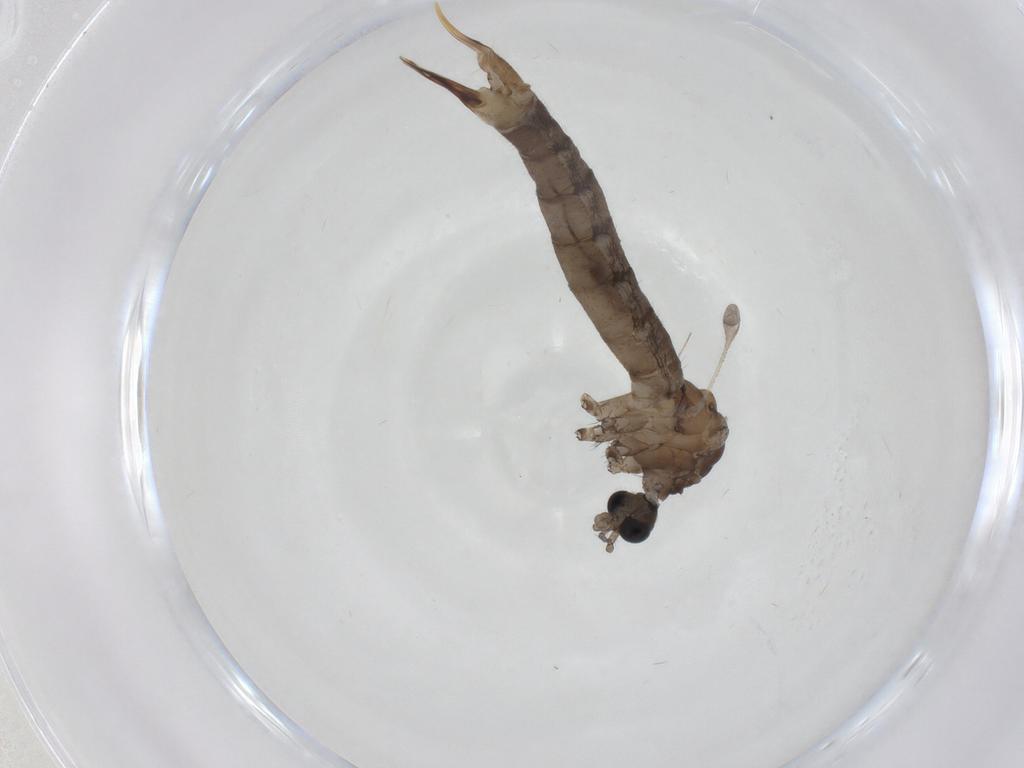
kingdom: Animalia
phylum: Arthropoda
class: Insecta
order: Diptera
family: Limoniidae
